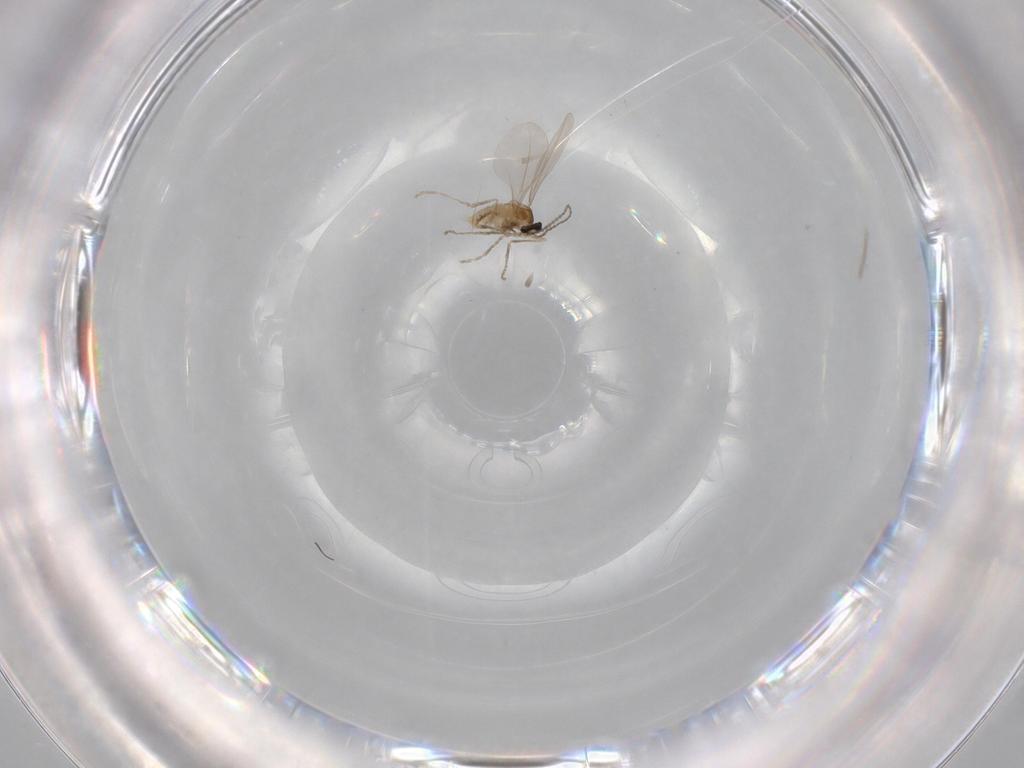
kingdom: Animalia
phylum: Arthropoda
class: Insecta
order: Diptera
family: Cecidomyiidae
